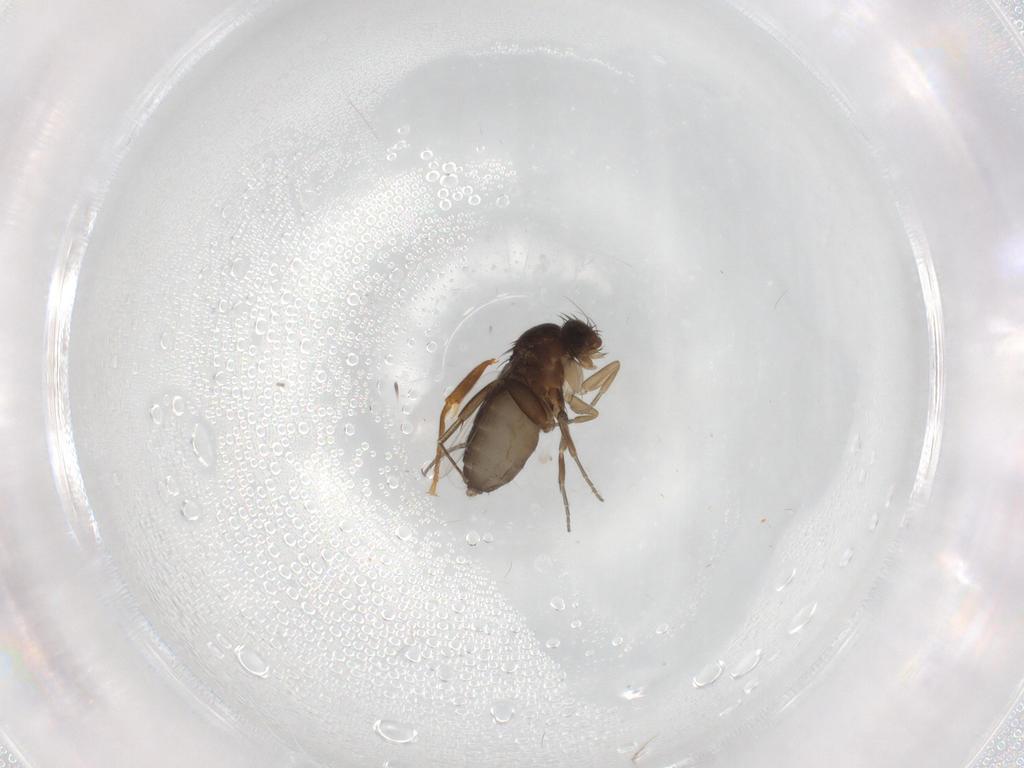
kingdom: Animalia
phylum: Arthropoda
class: Insecta
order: Diptera
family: Phoridae
